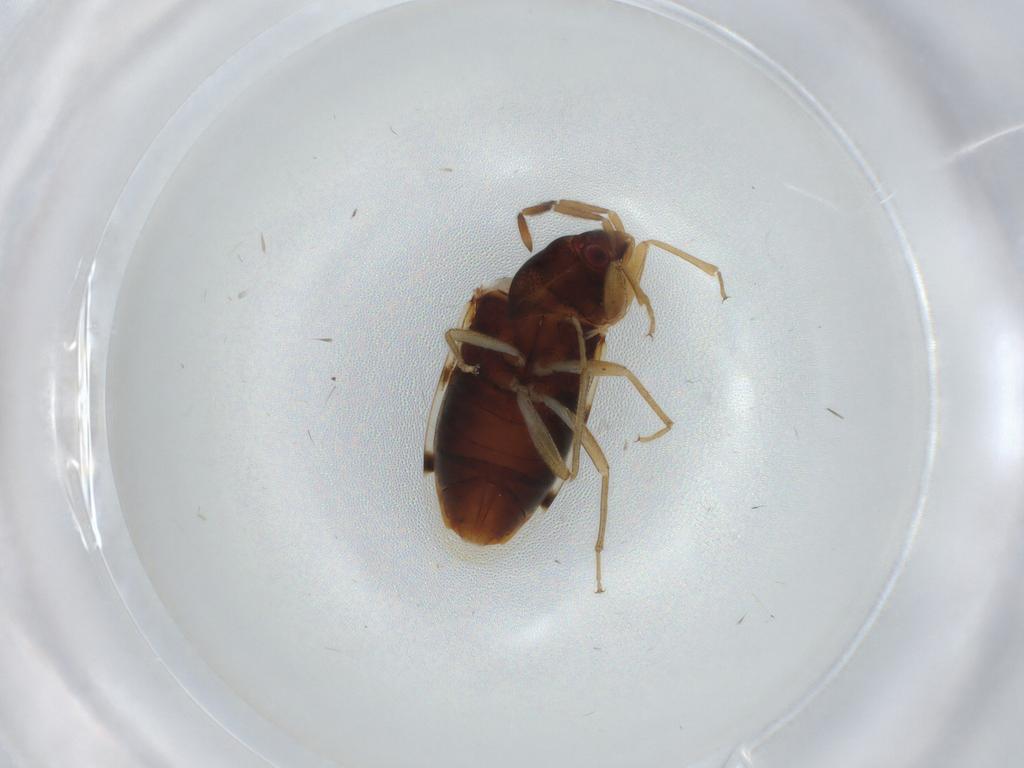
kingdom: Animalia
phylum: Arthropoda
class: Insecta
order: Hemiptera
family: Rhyparochromidae
